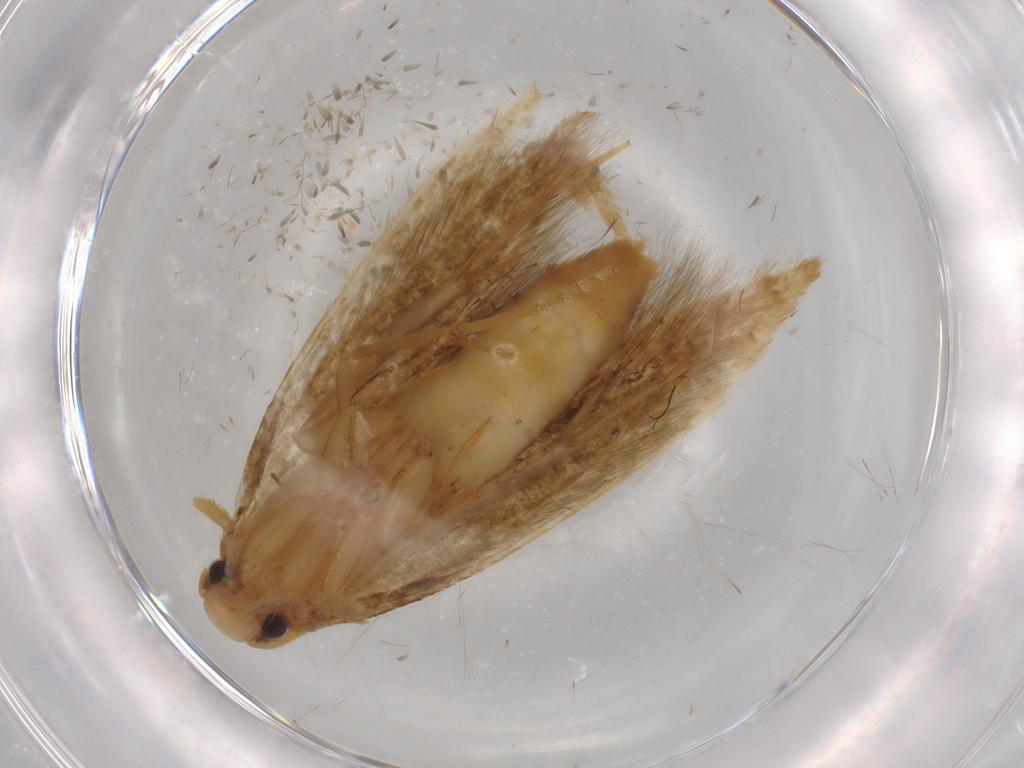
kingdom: Animalia
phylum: Arthropoda
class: Insecta
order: Lepidoptera
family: Tineidae
